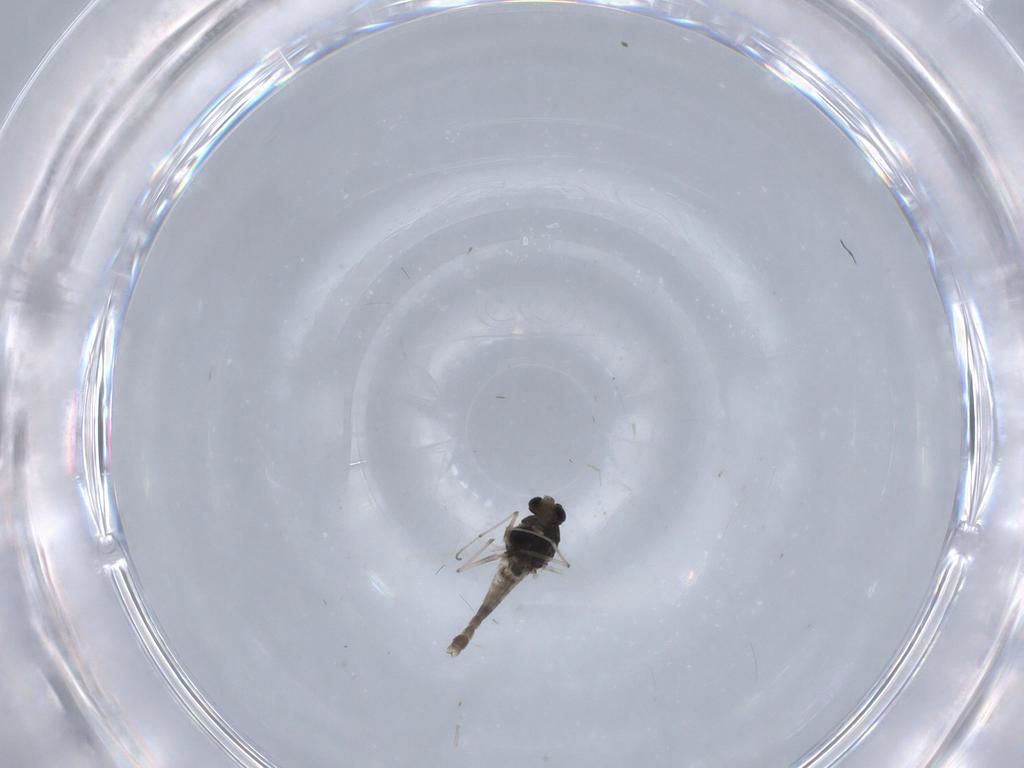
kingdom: Animalia
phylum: Arthropoda
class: Insecta
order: Diptera
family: Chironomidae
